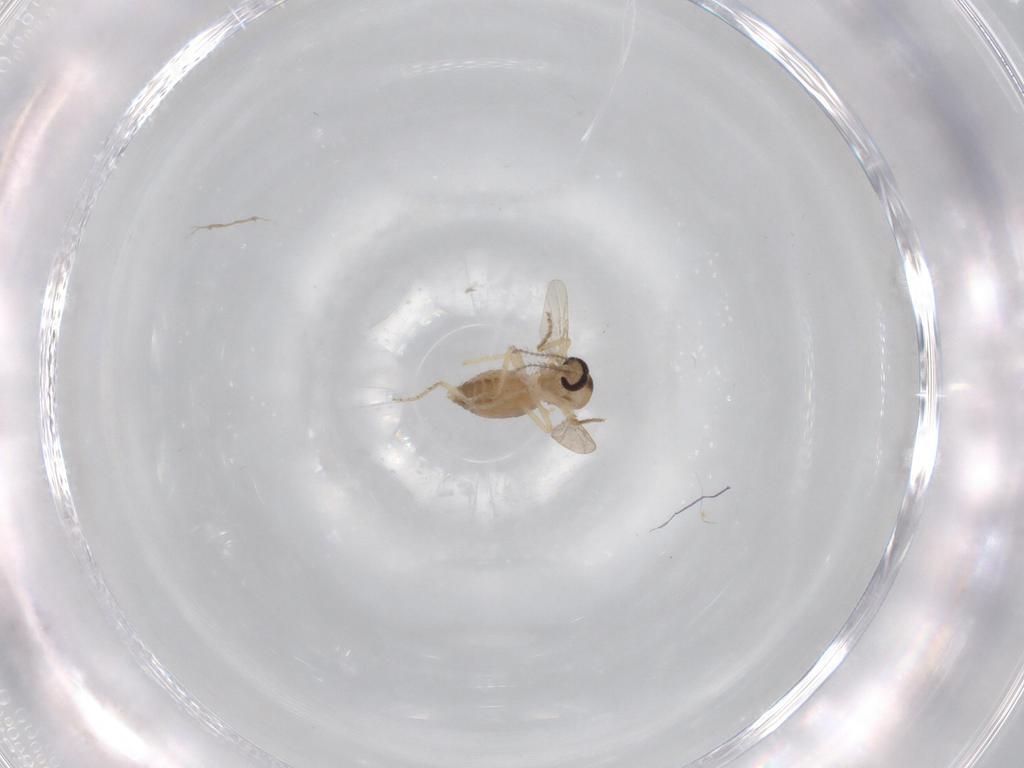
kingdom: Animalia
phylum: Arthropoda
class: Insecta
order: Diptera
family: Ceratopogonidae
